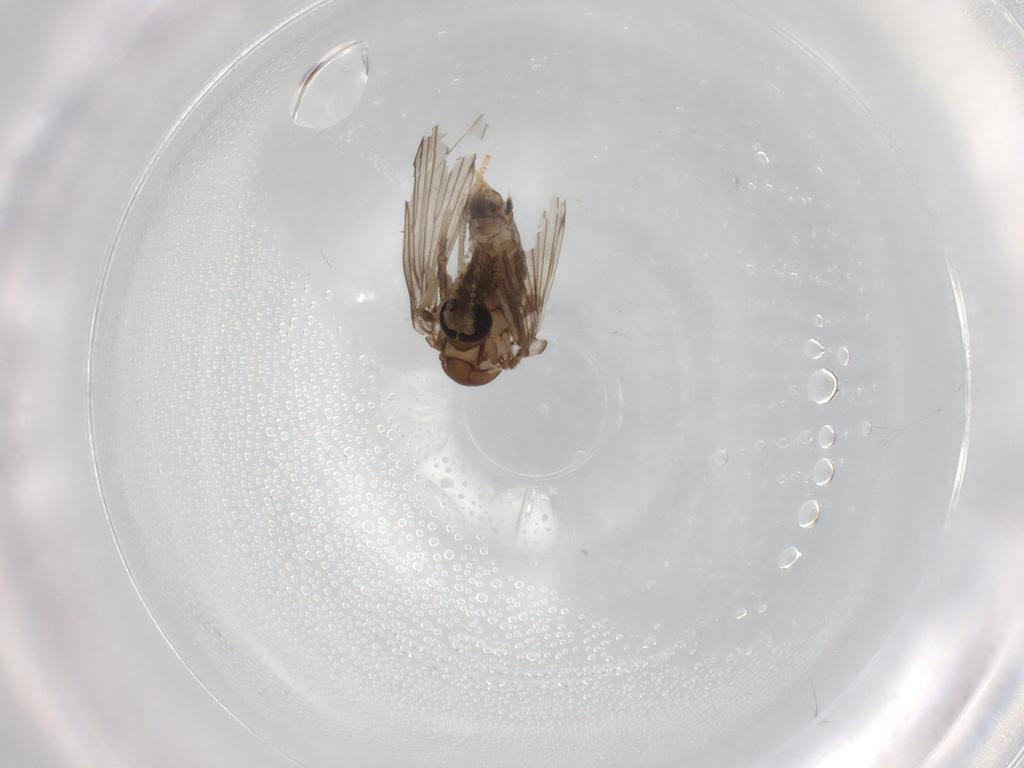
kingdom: Animalia
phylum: Arthropoda
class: Insecta
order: Diptera
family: Psychodidae
